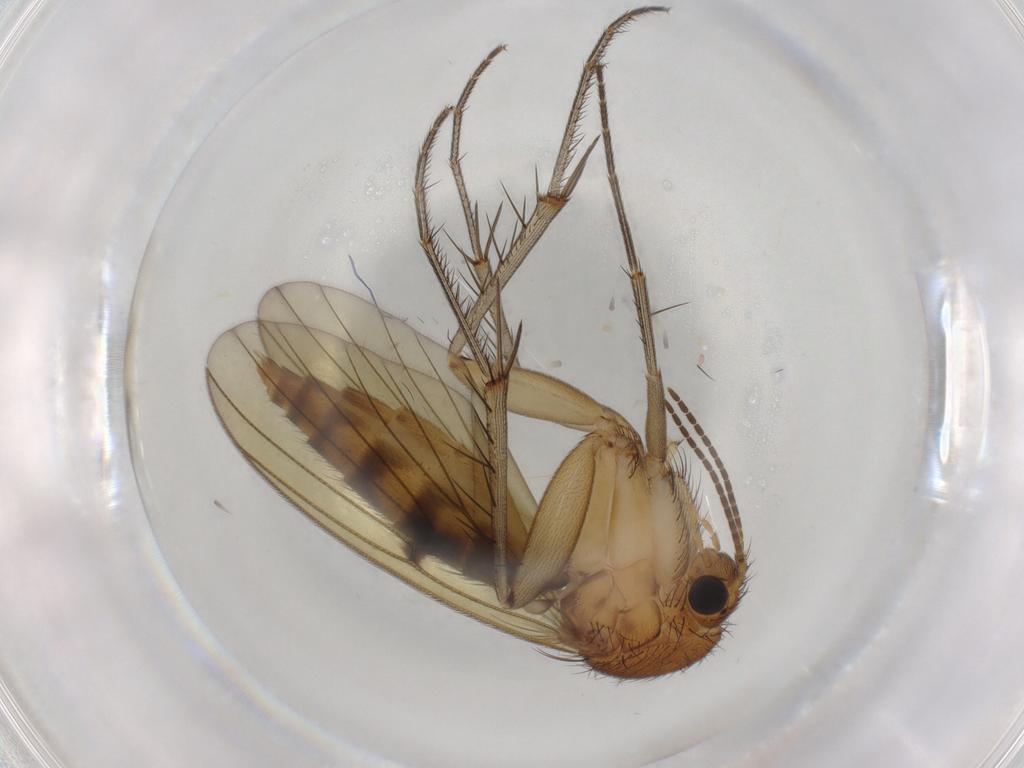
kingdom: Animalia
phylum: Arthropoda
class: Insecta
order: Diptera
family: Mycetophilidae
